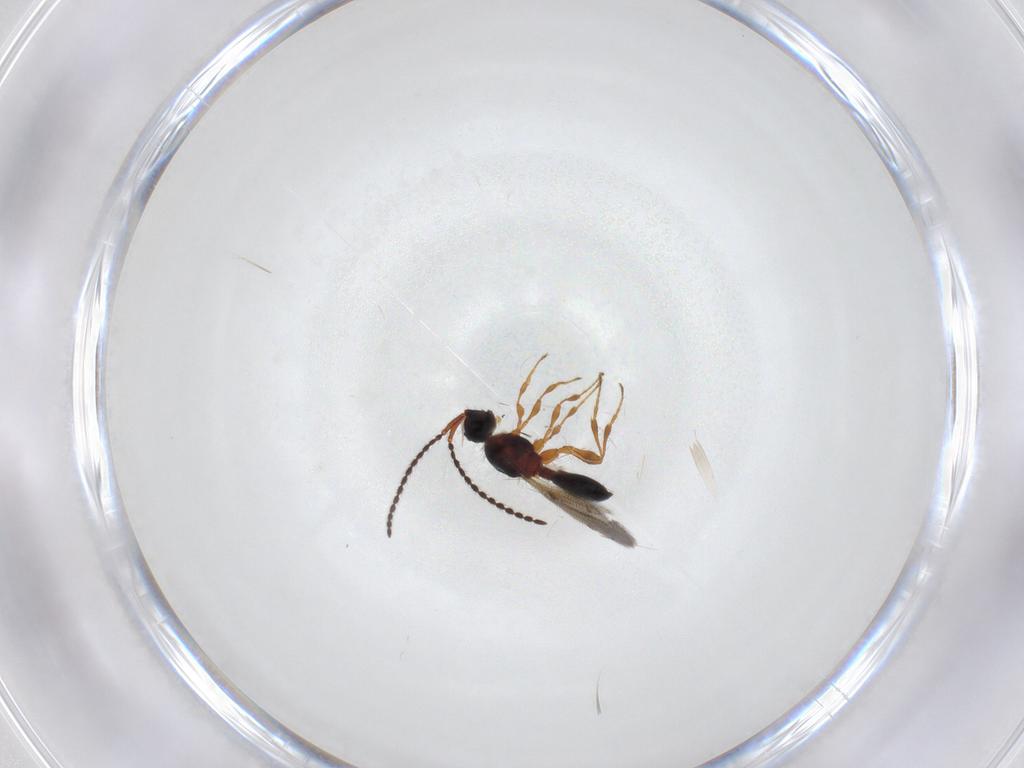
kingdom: Animalia
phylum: Arthropoda
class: Insecta
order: Hymenoptera
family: Diapriidae
